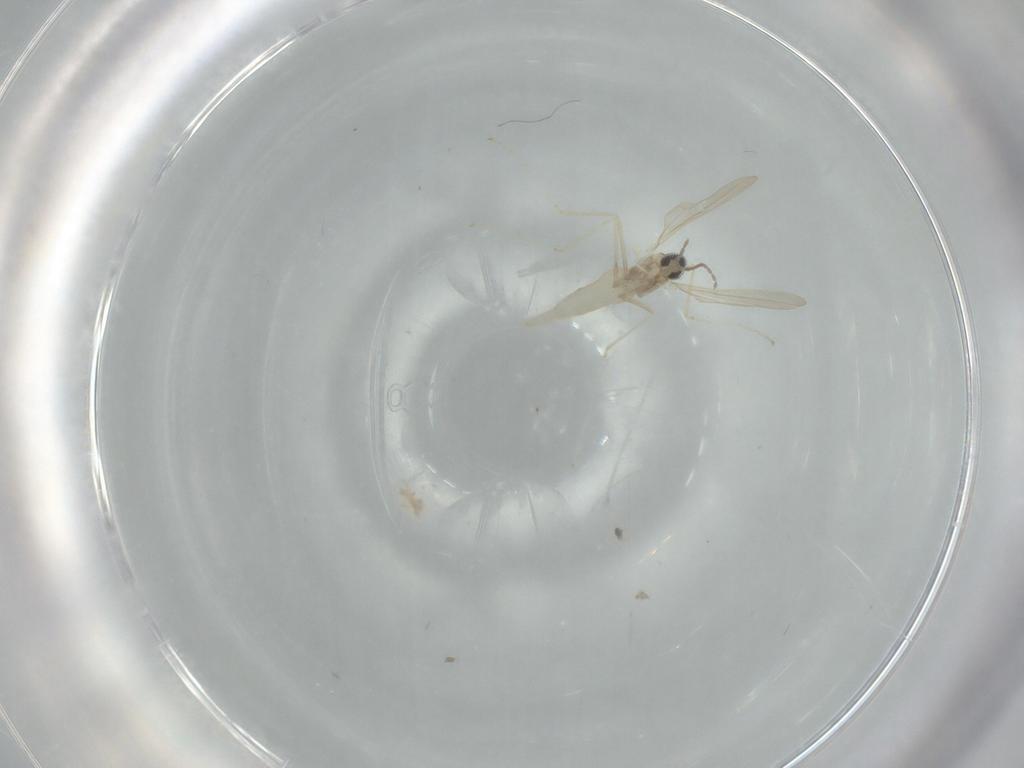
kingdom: Animalia
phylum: Arthropoda
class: Insecta
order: Diptera
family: Cecidomyiidae
